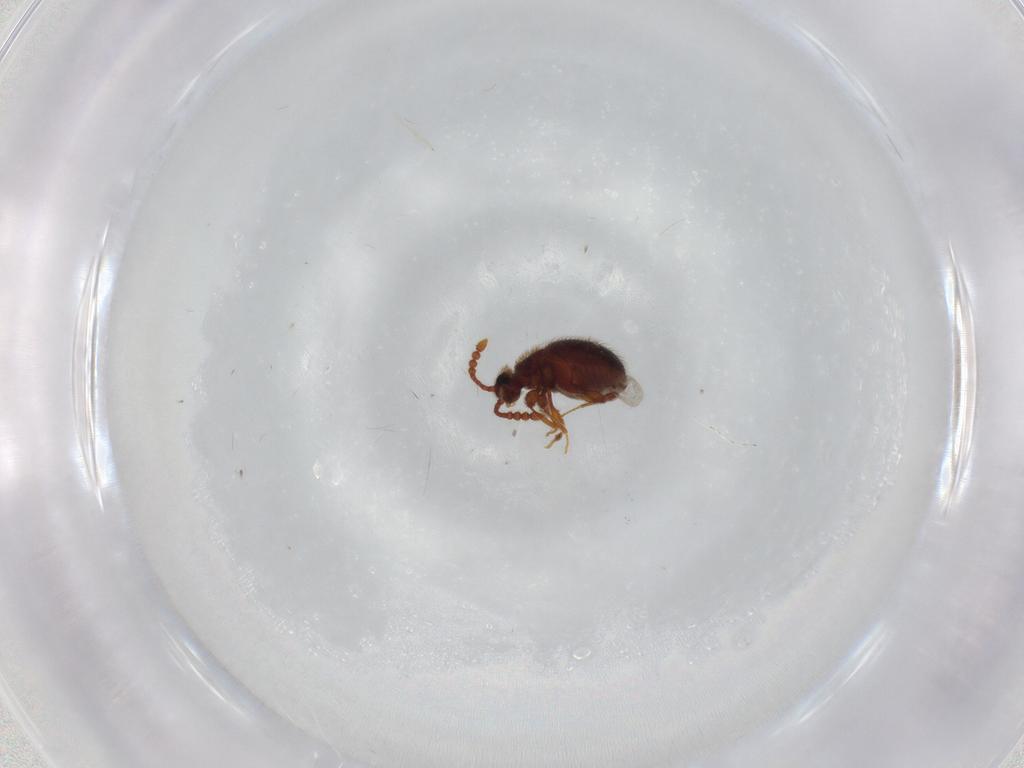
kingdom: Animalia
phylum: Arthropoda
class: Insecta
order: Coleoptera
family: Staphylinidae
